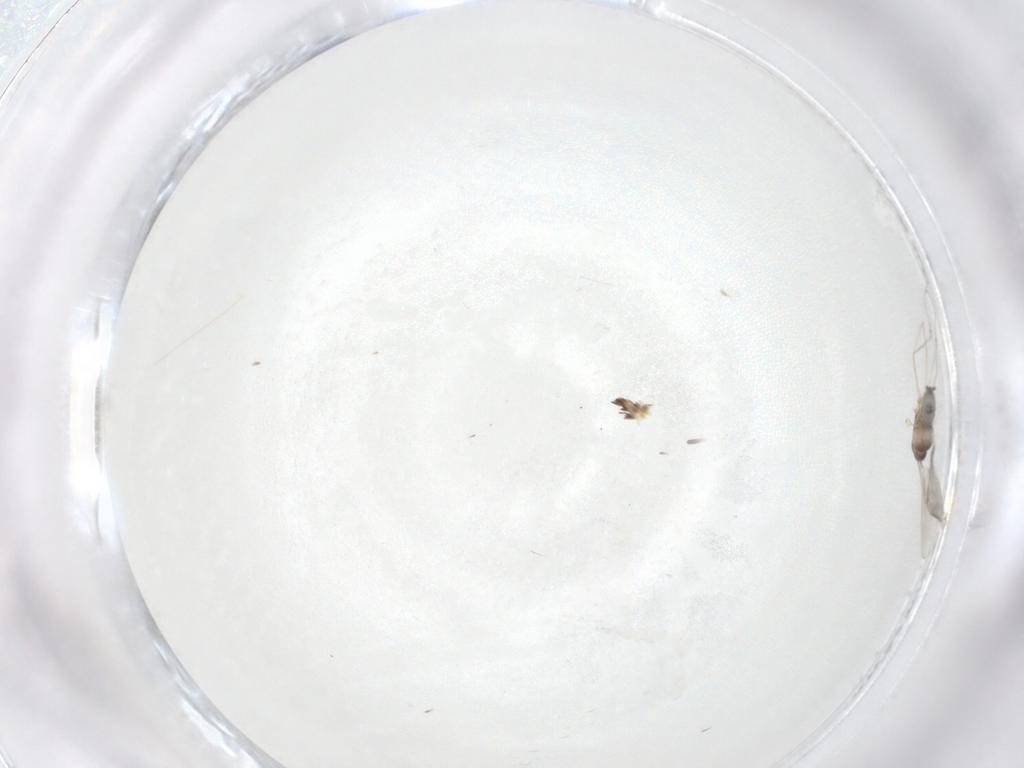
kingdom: Animalia
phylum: Arthropoda
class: Insecta
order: Diptera
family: Cecidomyiidae
